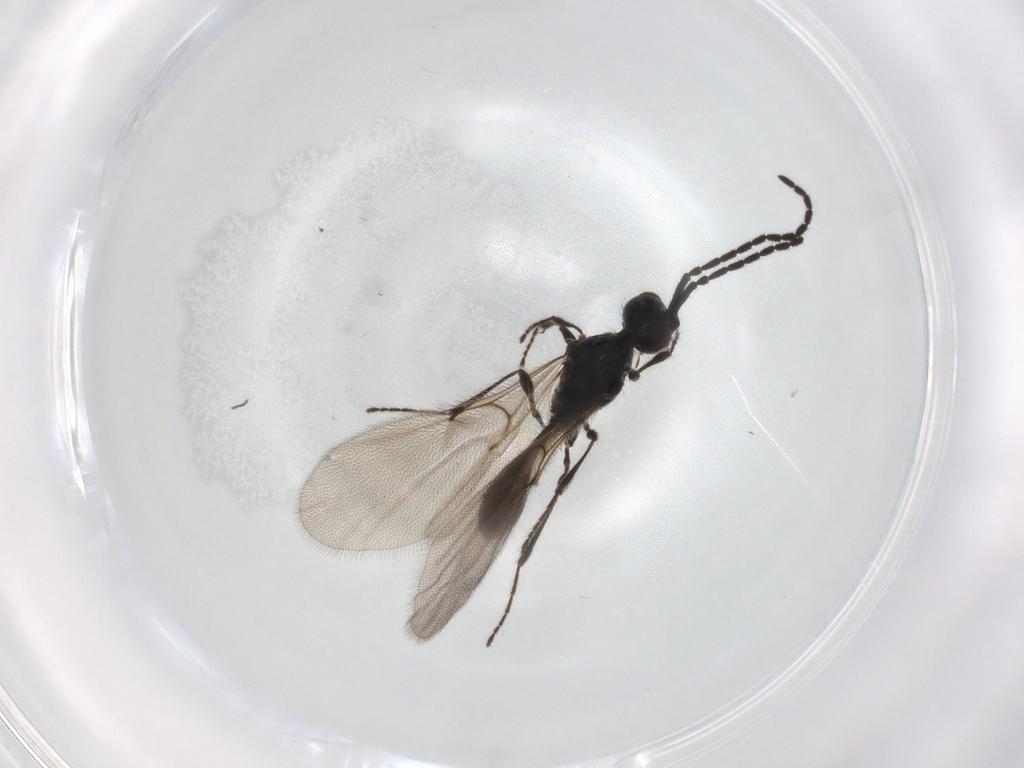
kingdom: Animalia
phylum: Arthropoda
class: Insecta
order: Hymenoptera
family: Diapriidae
